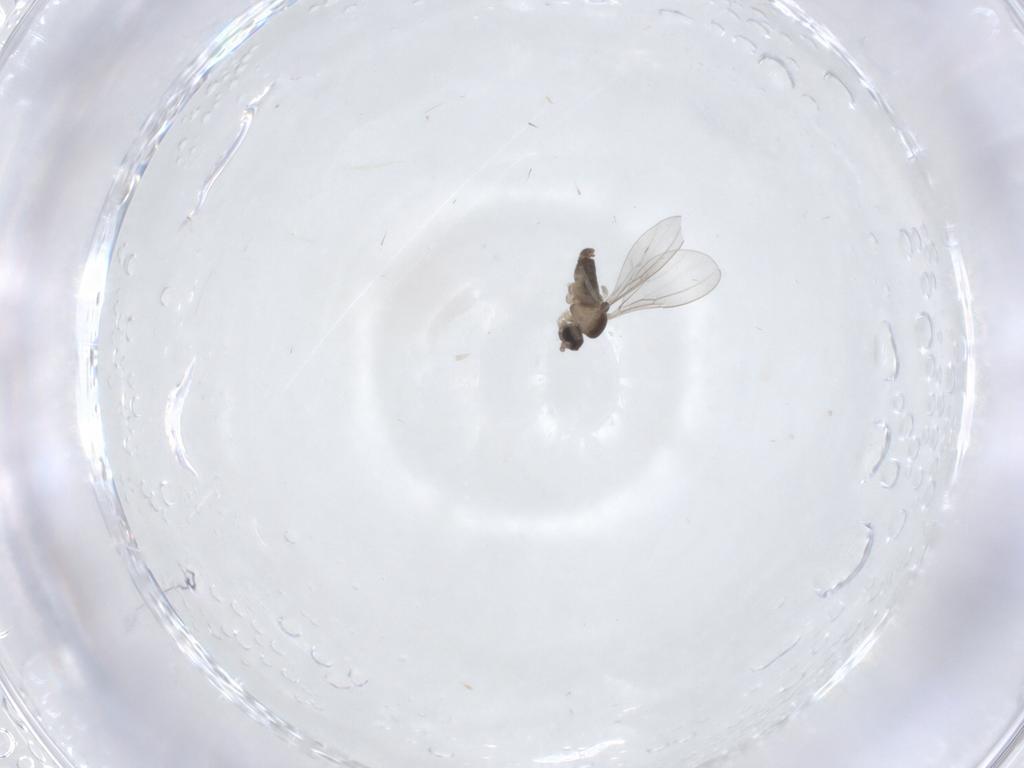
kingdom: Animalia
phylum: Arthropoda
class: Insecta
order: Diptera
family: Cecidomyiidae
